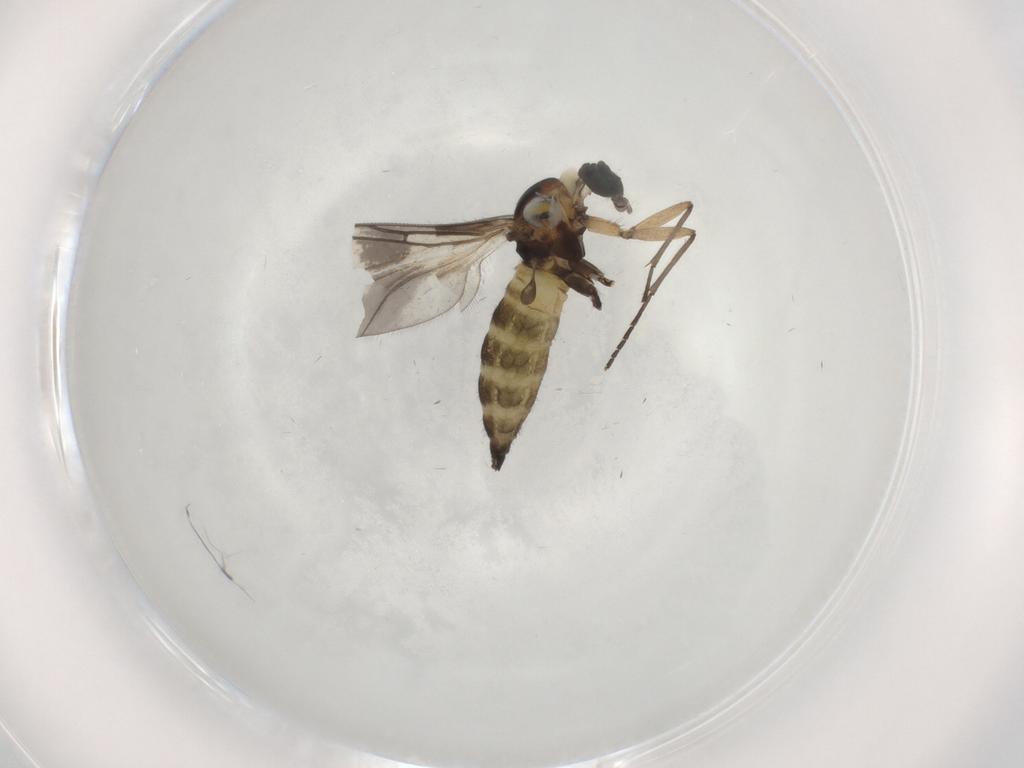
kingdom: Animalia
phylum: Arthropoda
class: Insecta
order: Diptera
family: Sciaridae
